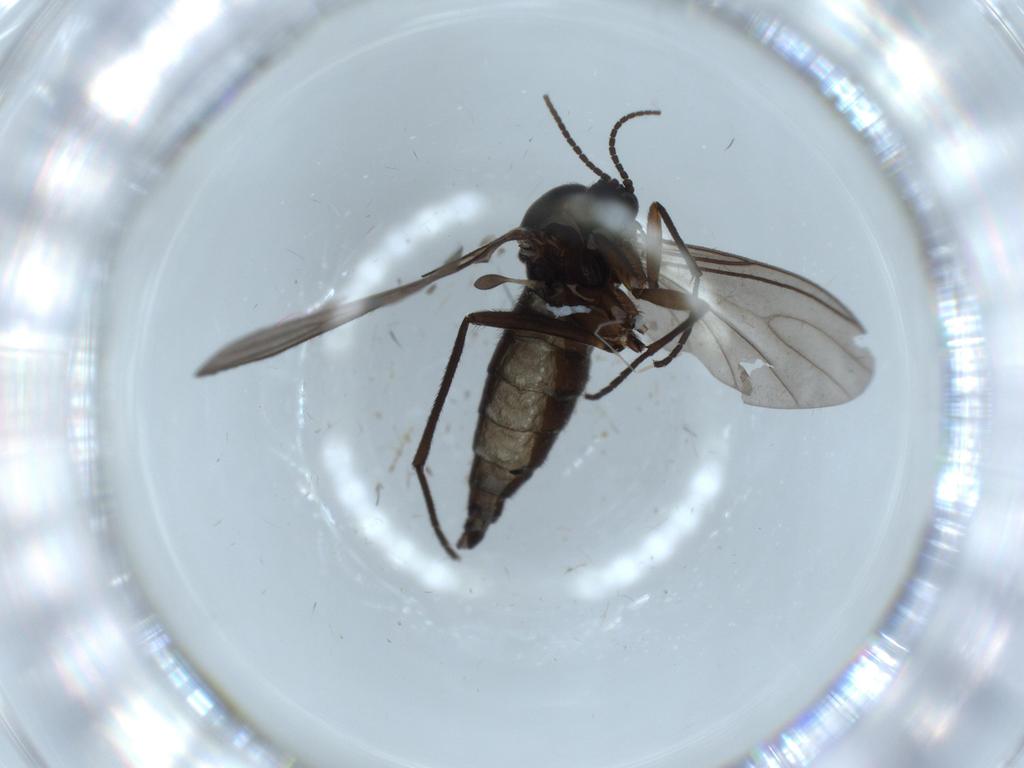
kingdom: Animalia
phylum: Arthropoda
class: Insecta
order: Diptera
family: Sciaridae
